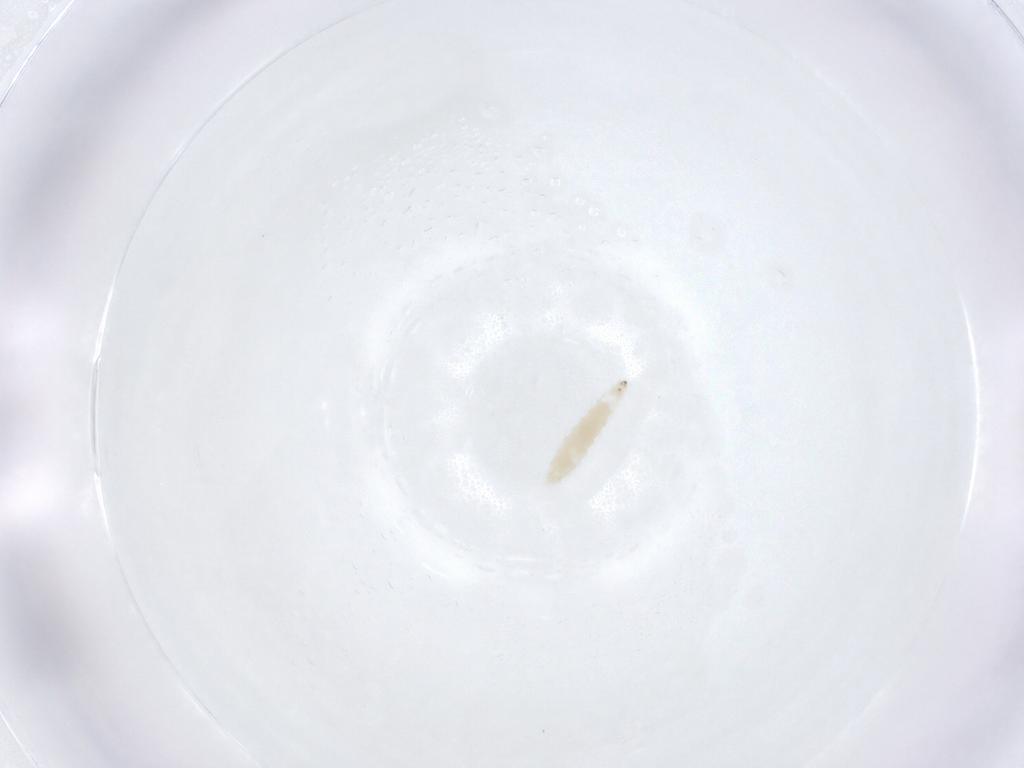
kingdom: Animalia
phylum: Arthropoda
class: Insecta
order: Diptera
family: Cecidomyiidae
